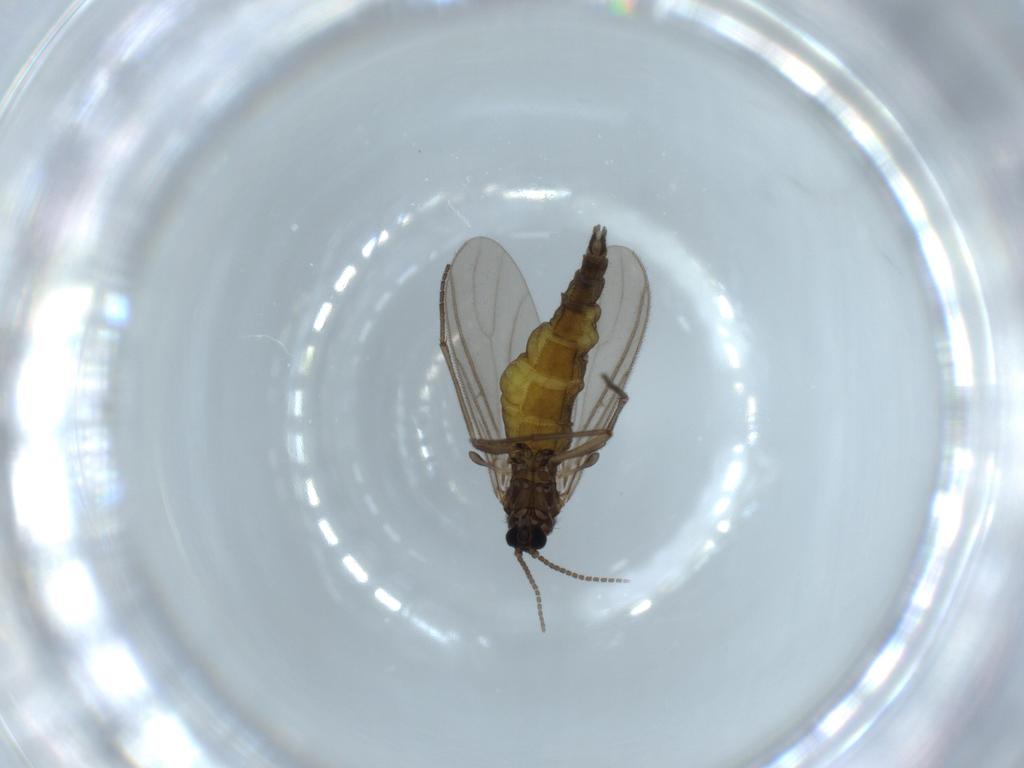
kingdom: Animalia
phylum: Arthropoda
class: Insecta
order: Diptera
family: Sciaridae
